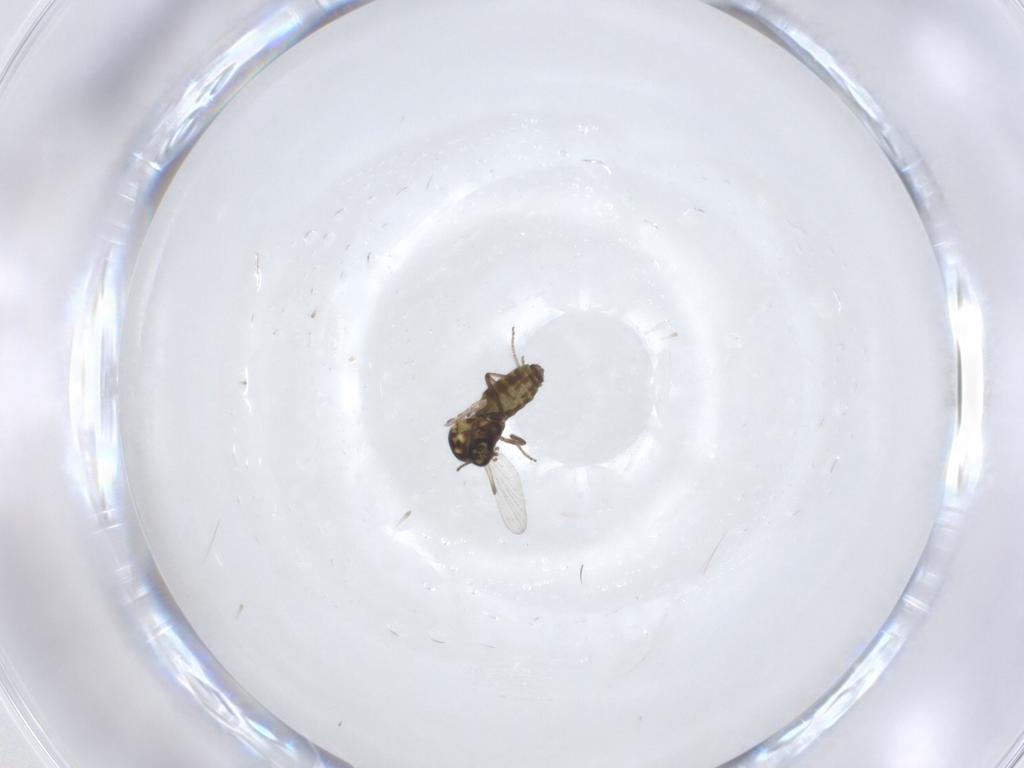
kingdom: Animalia
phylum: Arthropoda
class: Insecta
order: Diptera
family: Ceratopogonidae
